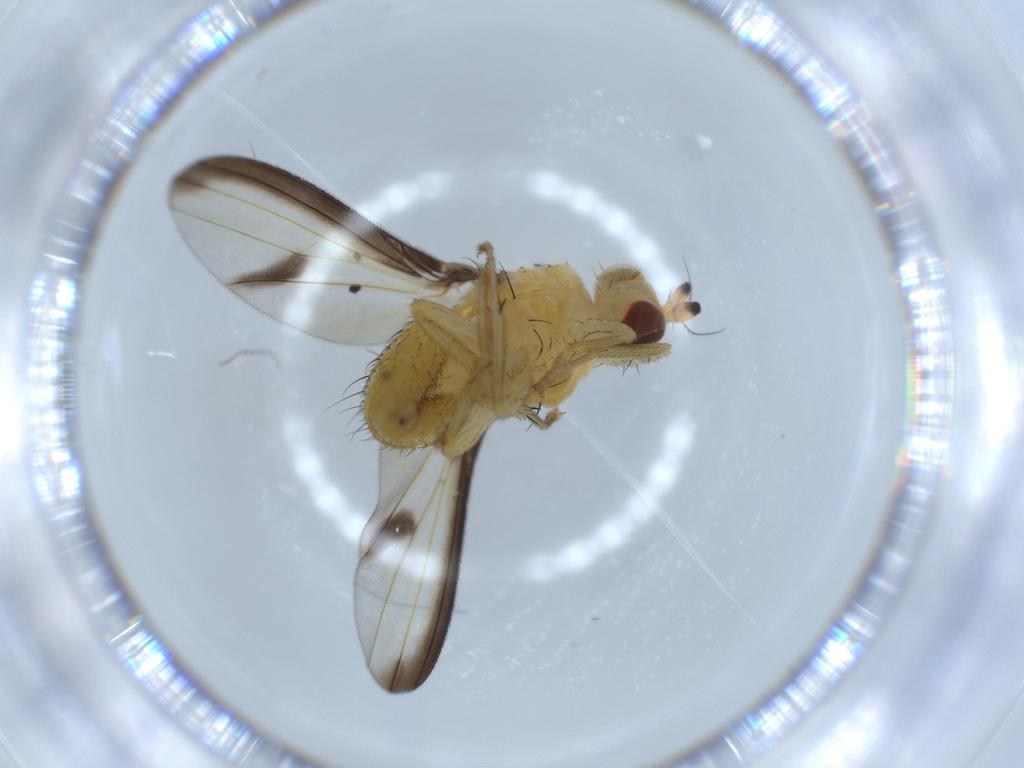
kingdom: Animalia
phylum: Arthropoda
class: Insecta
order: Diptera
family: Lauxaniidae
